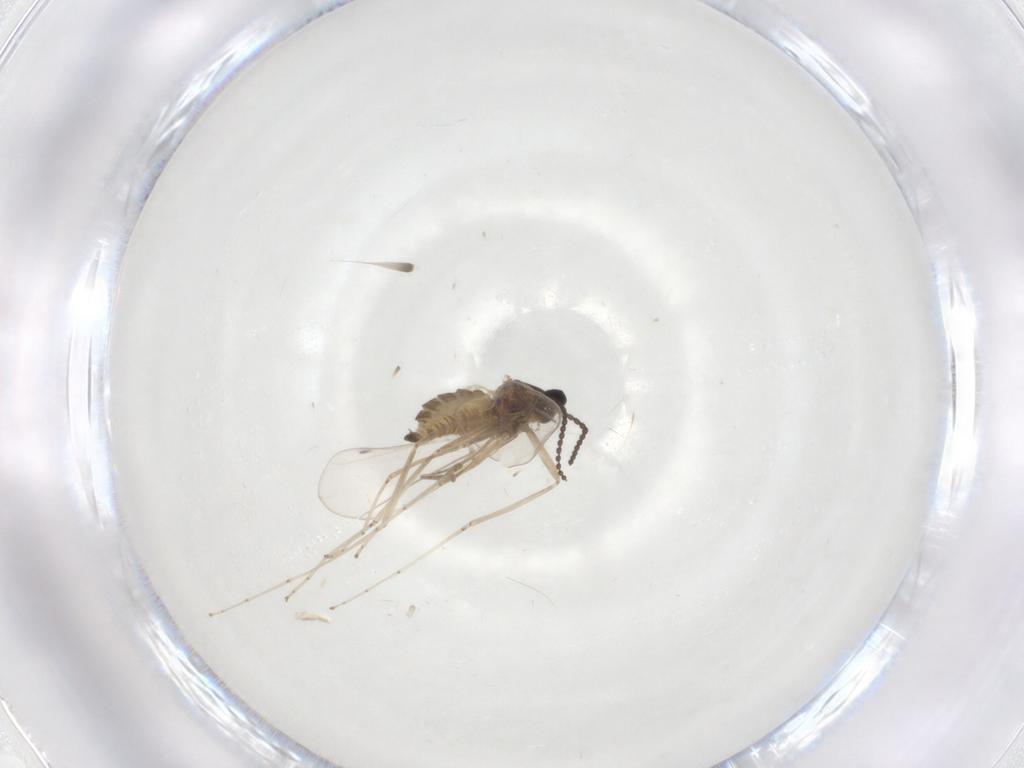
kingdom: Animalia
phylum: Arthropoda
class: Insecta
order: Diptera
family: Cecidomyiidae
